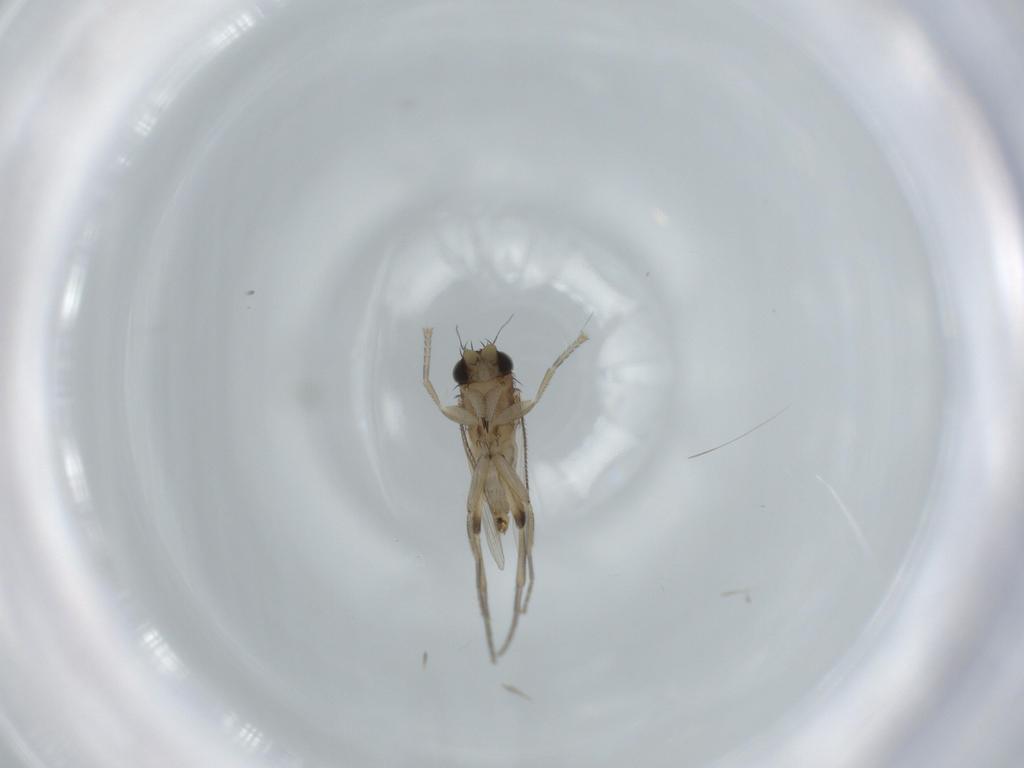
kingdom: Animalia
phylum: Arthropoda
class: Insecta
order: Diptera
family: Phoridae
